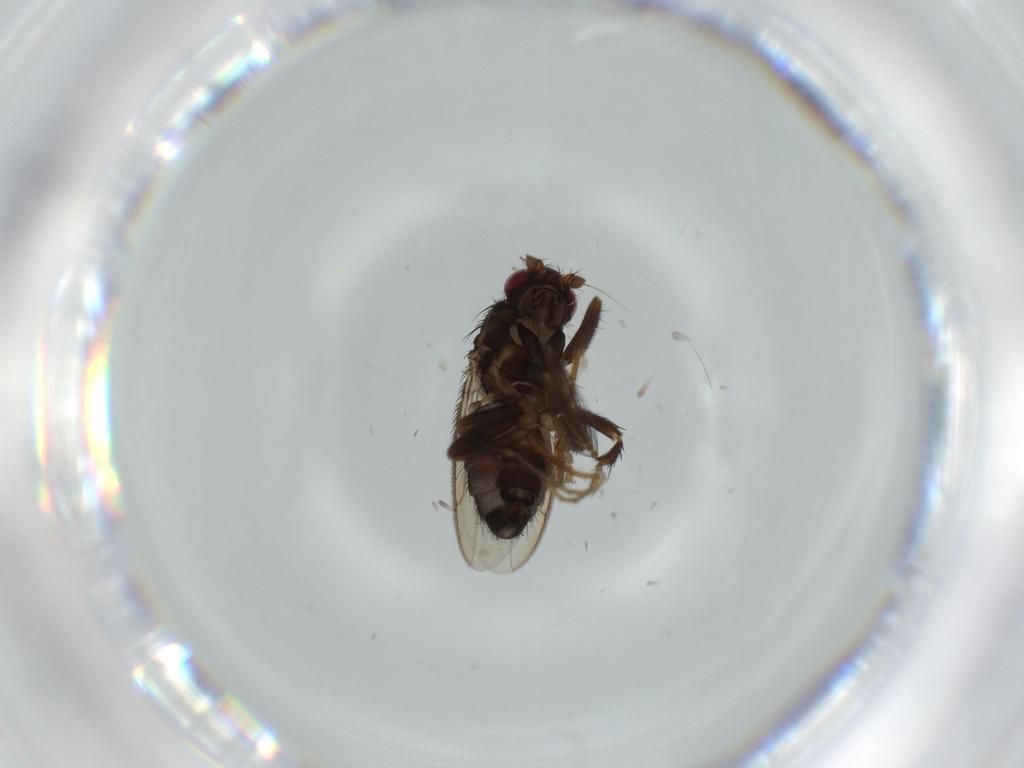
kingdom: Animalia
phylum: Arthropoda
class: Insecta
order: Diptera
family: Sphaeroceridae
